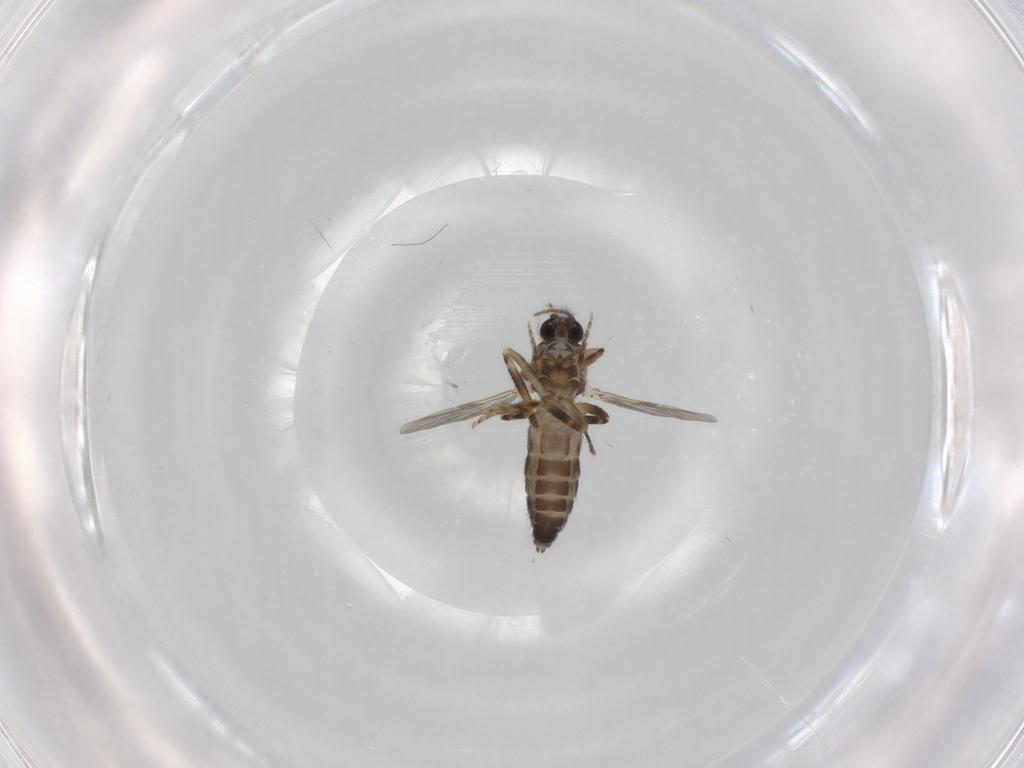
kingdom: Animalia
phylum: Arthropoda
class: Insecta
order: Diptera
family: Ceratopogonidae
